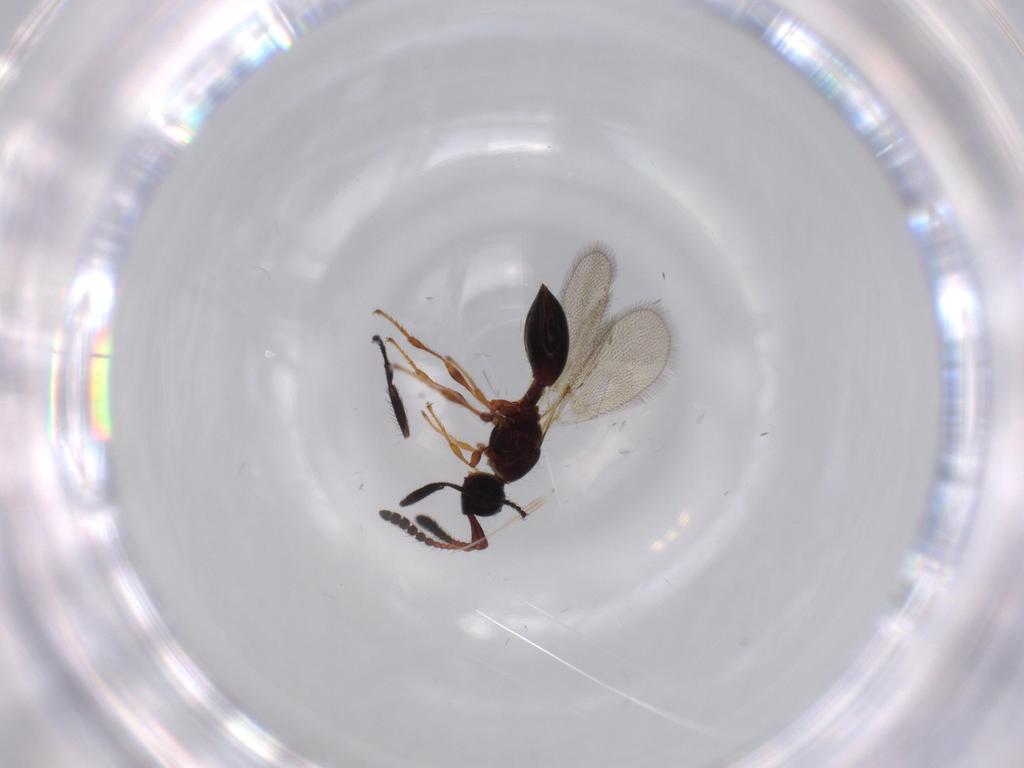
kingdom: Animalia
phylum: Arthropoda
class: Insecta
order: Hymenoptera
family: Diapriidae
